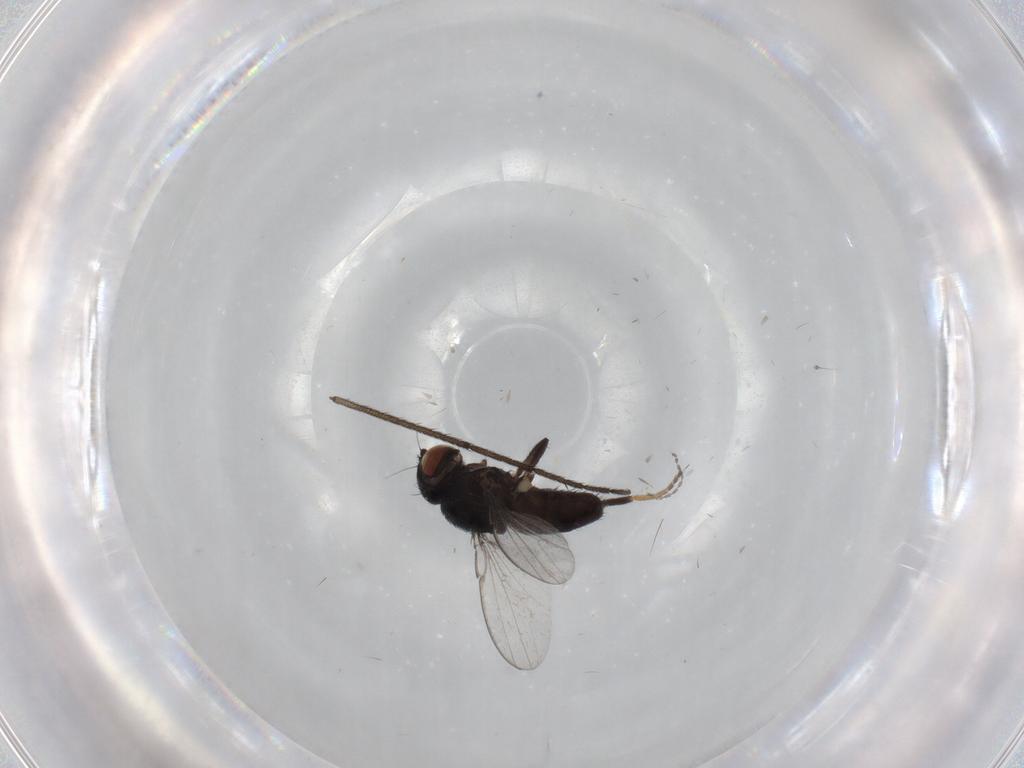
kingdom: Animalia
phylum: Arthropoda
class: Insecta
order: Diptera
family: Milichiidae
